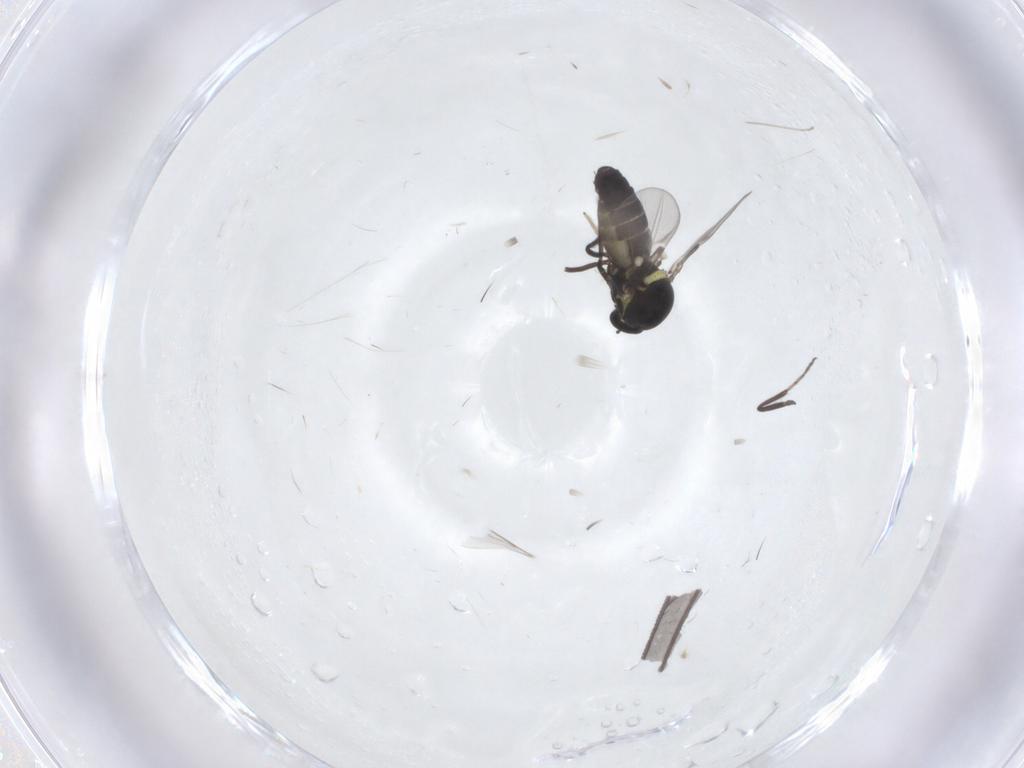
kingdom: Animalia
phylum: Arthropoda
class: Insecta
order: Diptera
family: Ceratopogonidae
